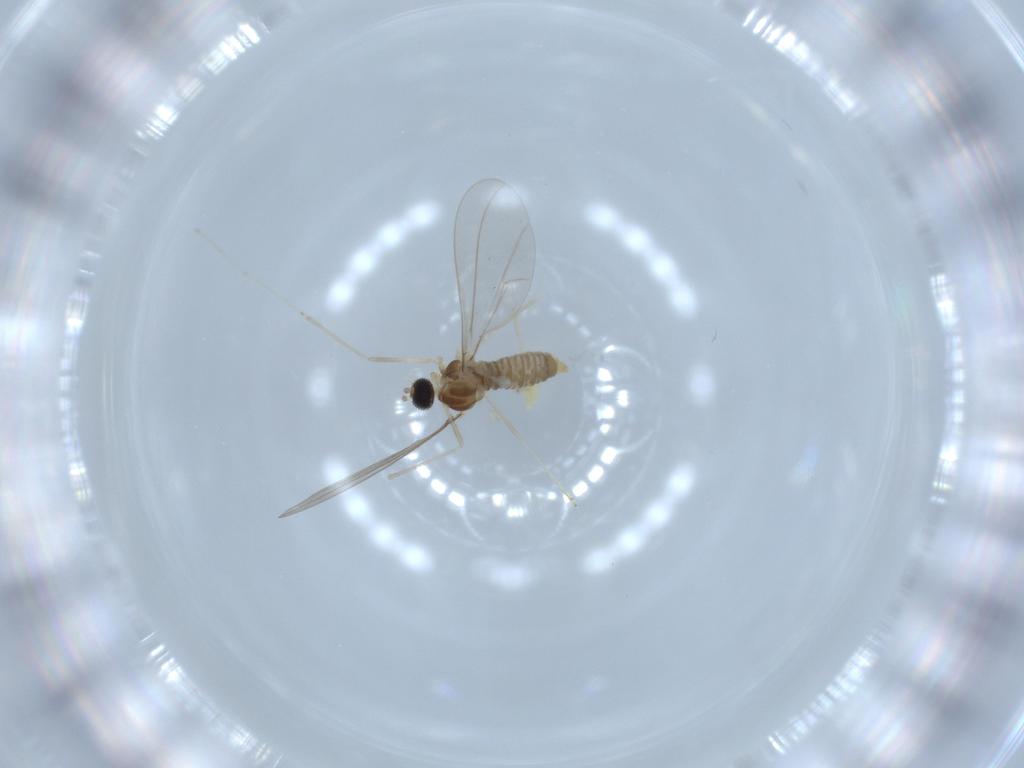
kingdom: Animalia
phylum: Arthropoda
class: Insecta
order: Diptera
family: Cecidomyiidae
